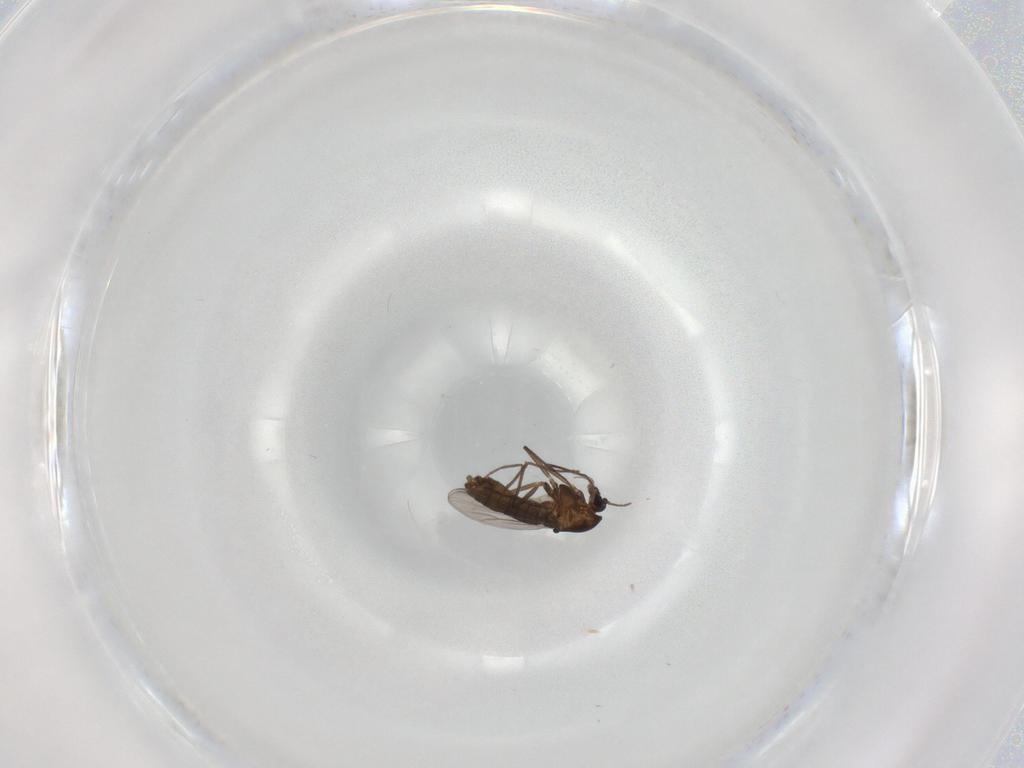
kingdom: Animalia
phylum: Arthropoda
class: Insecta
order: Diptera
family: Chironomidae
